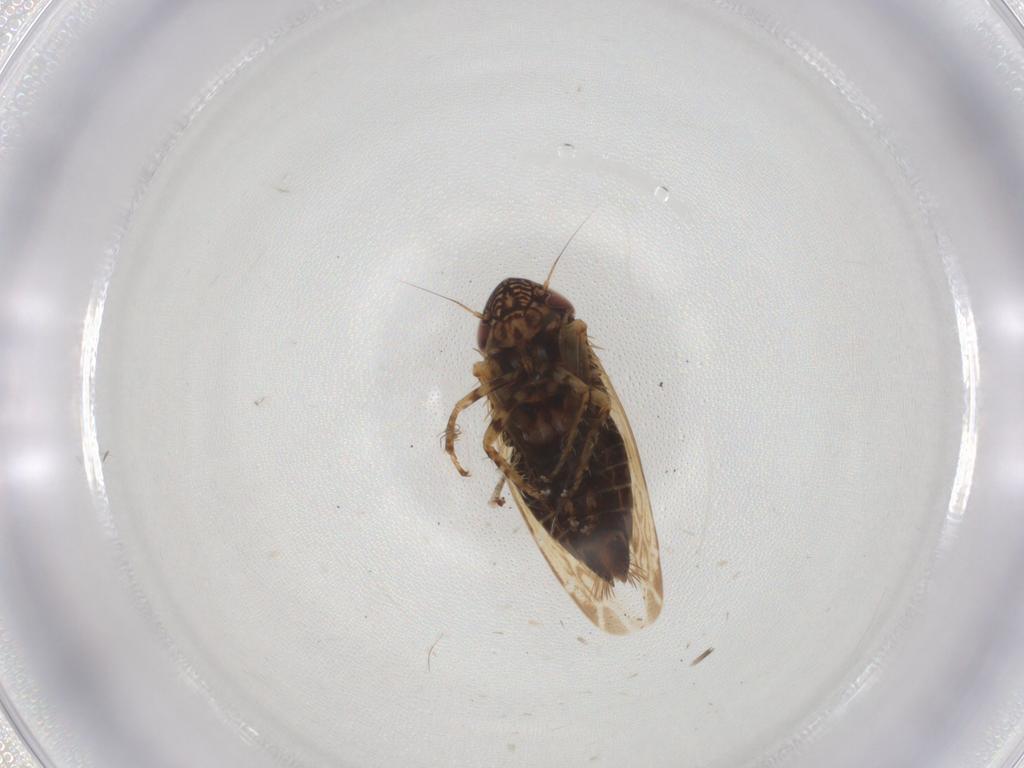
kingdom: Animalia
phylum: Arthropoda
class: Insecta
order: Hemiptera
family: Cicadellidae
